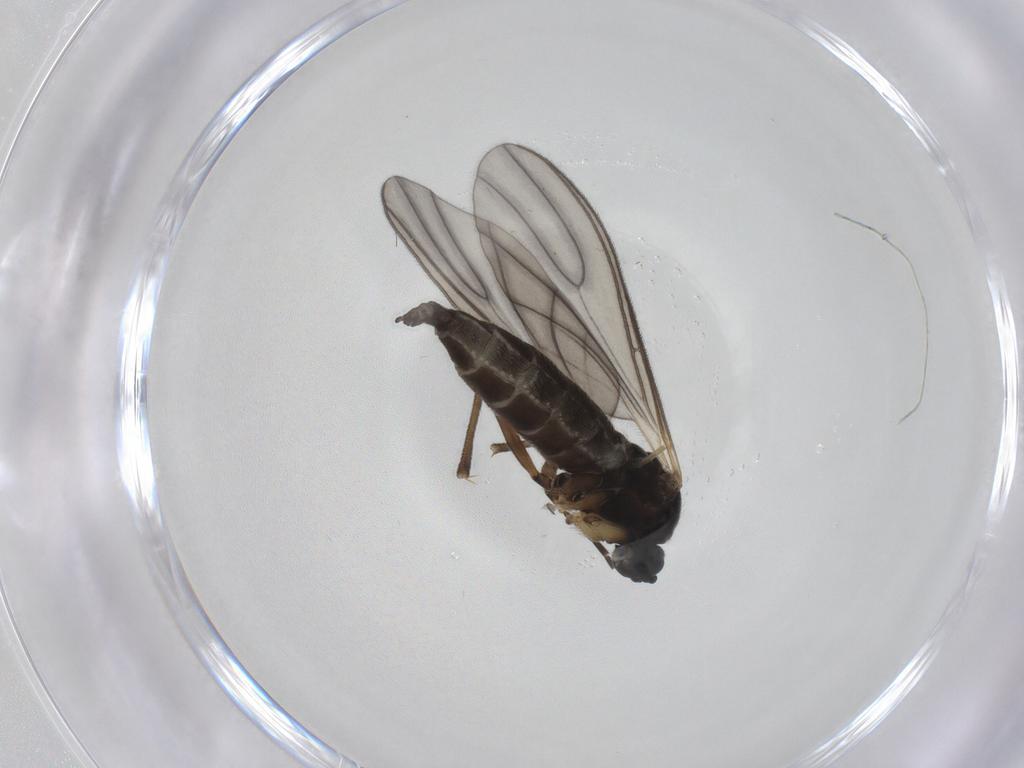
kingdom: Animalia
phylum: Arthropoda
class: Insecta
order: Diptera
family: Sciaridae
